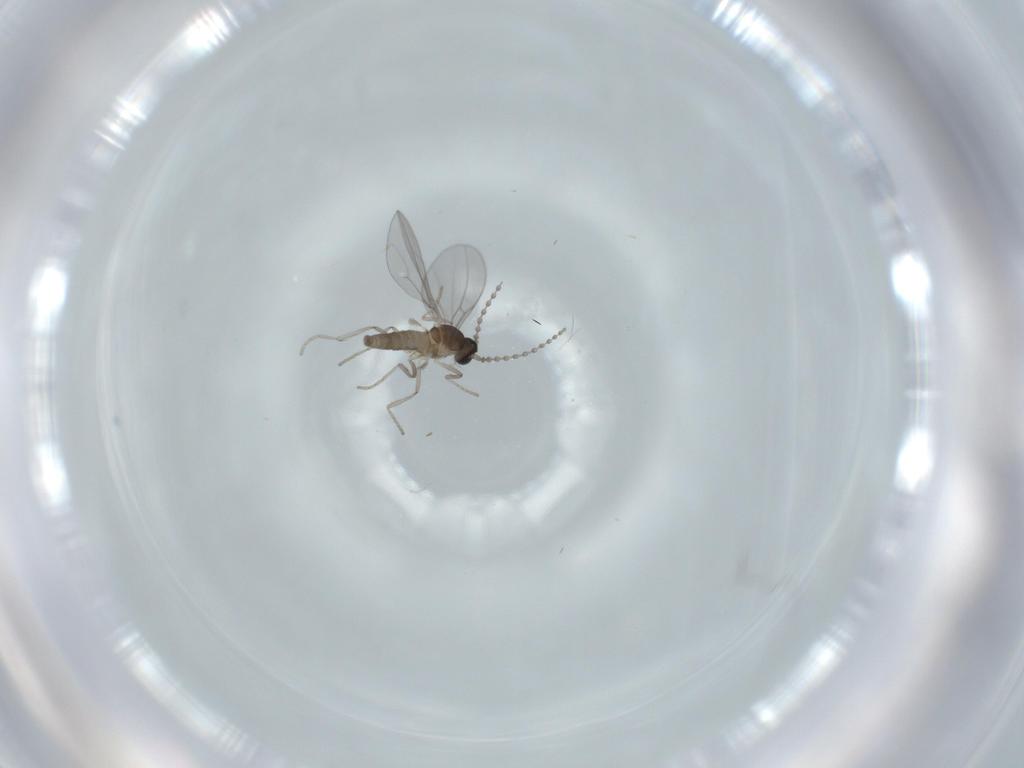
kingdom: Animalia
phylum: Arthropoda
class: Insecta
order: Diptera
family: Cecidomyiidae
